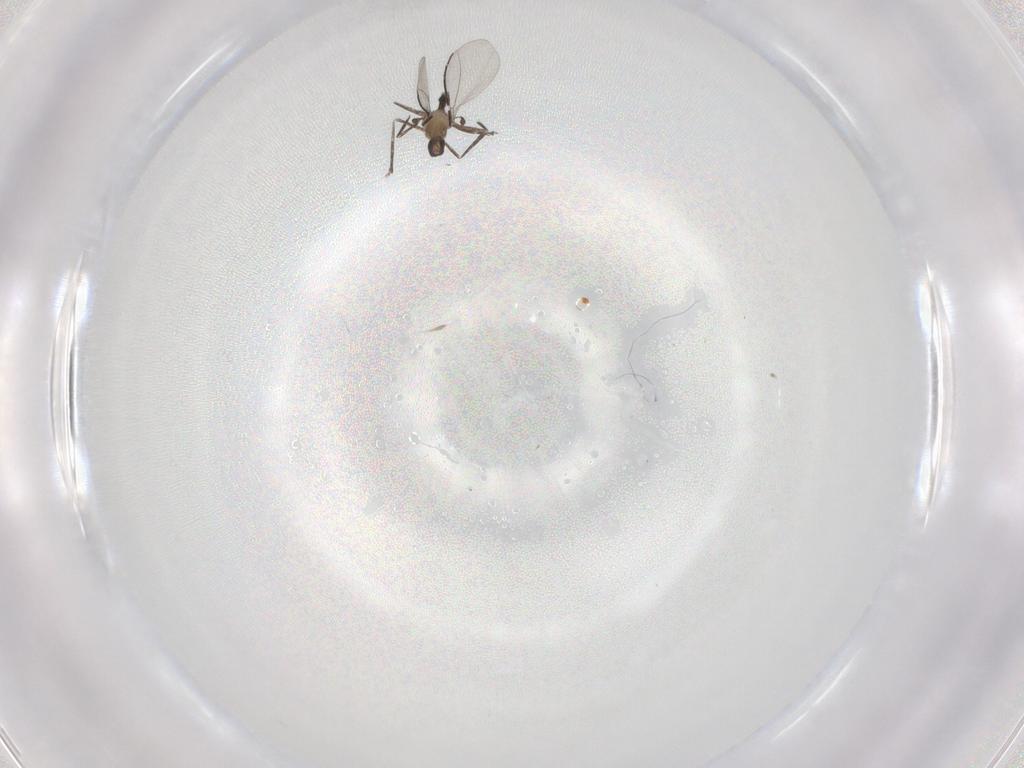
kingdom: Animalia
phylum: Arthropoda
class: Insecta
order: Diptera
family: Cecidomyiidae
